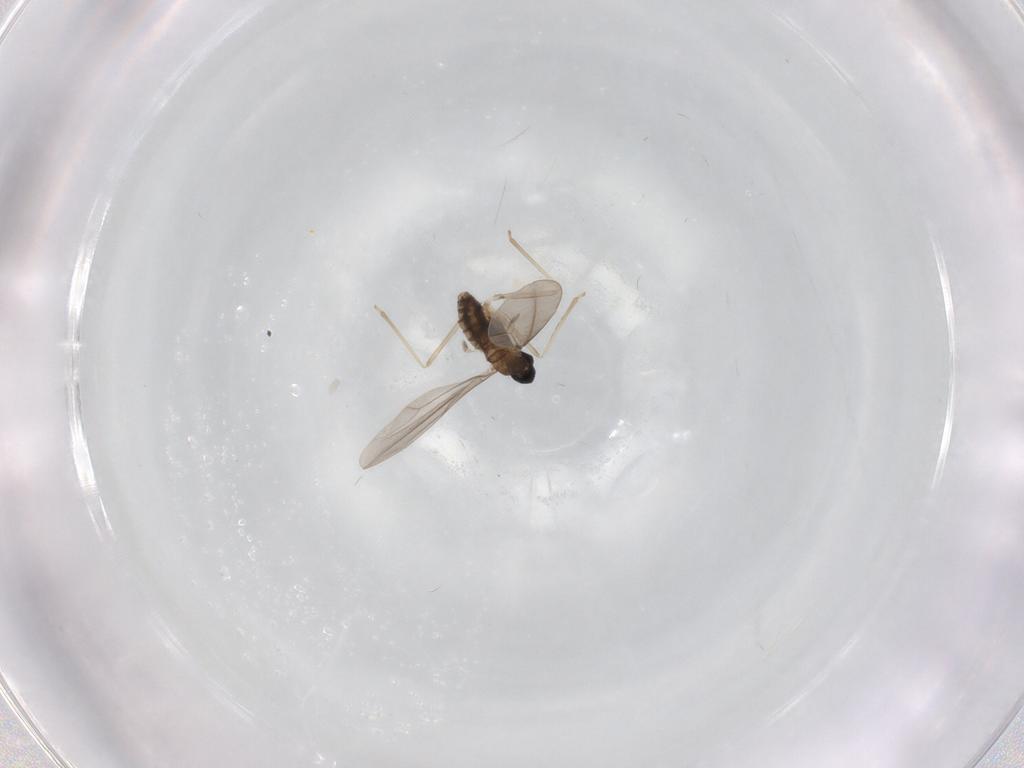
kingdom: Animalia
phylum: Arthropoda
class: Insecta
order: Diptera
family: Cecidomyiidae
